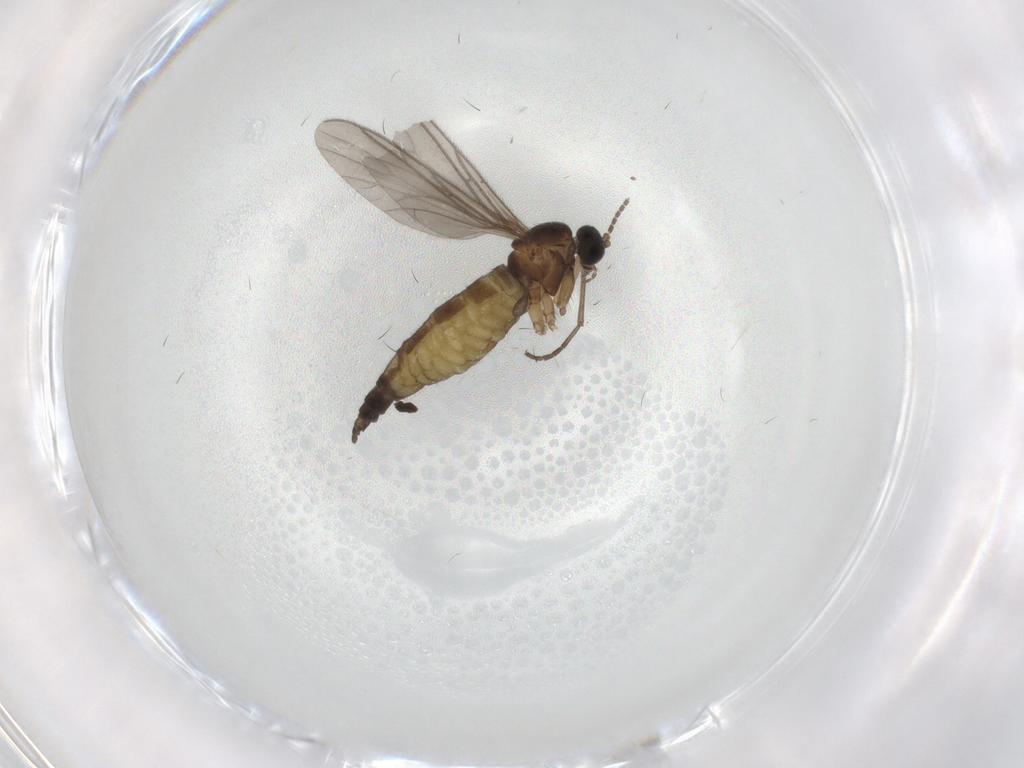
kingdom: Animalia
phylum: Arthropoda
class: Insecta
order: Diptera
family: Sciaridae
